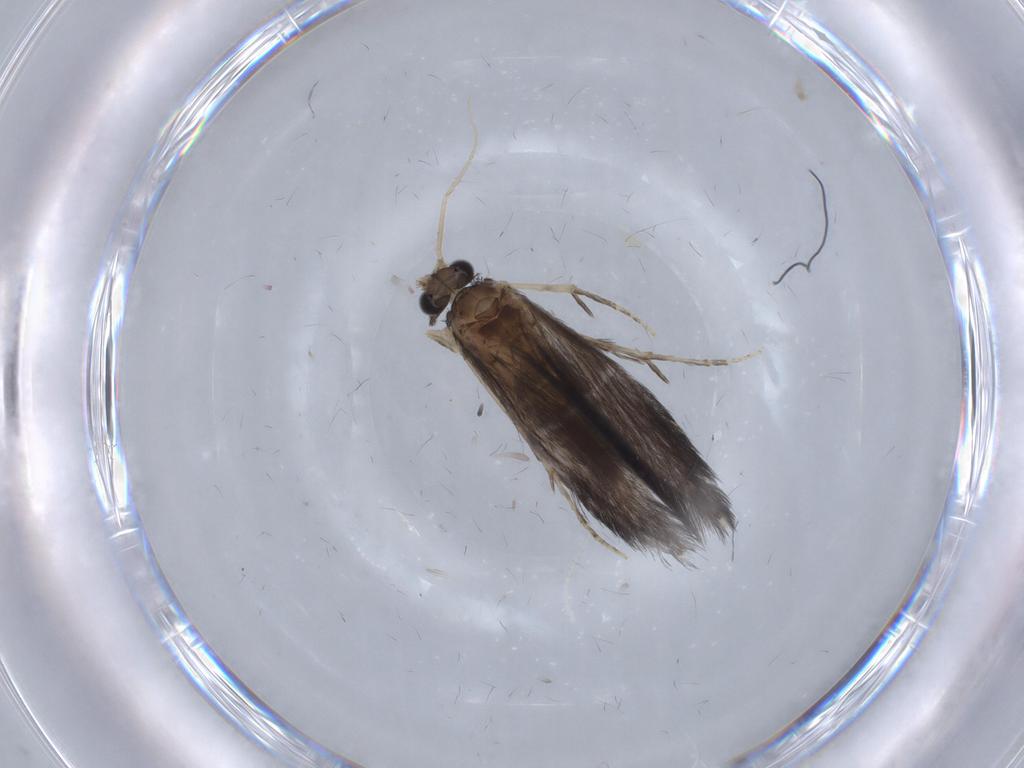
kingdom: Animalia
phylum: Arthropoda
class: Insecta
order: Trichoptera
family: Hydroptilidae
